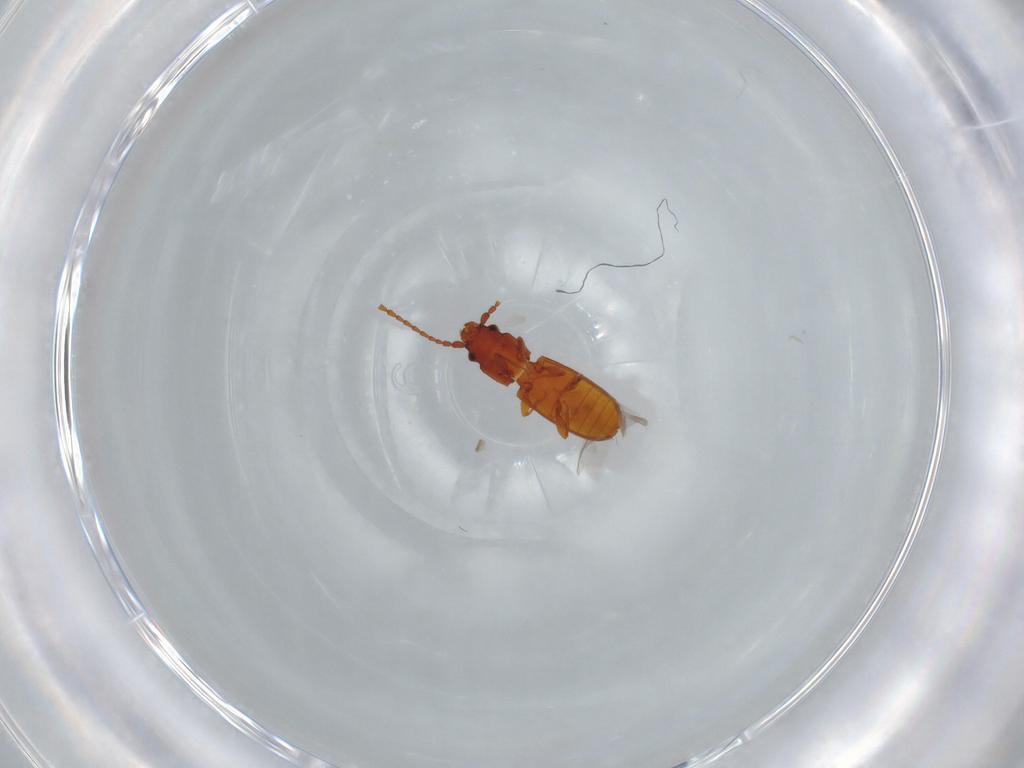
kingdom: Animalia
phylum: Arthropoda
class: Insecta
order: Coleoptera
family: Laemophloeidae
